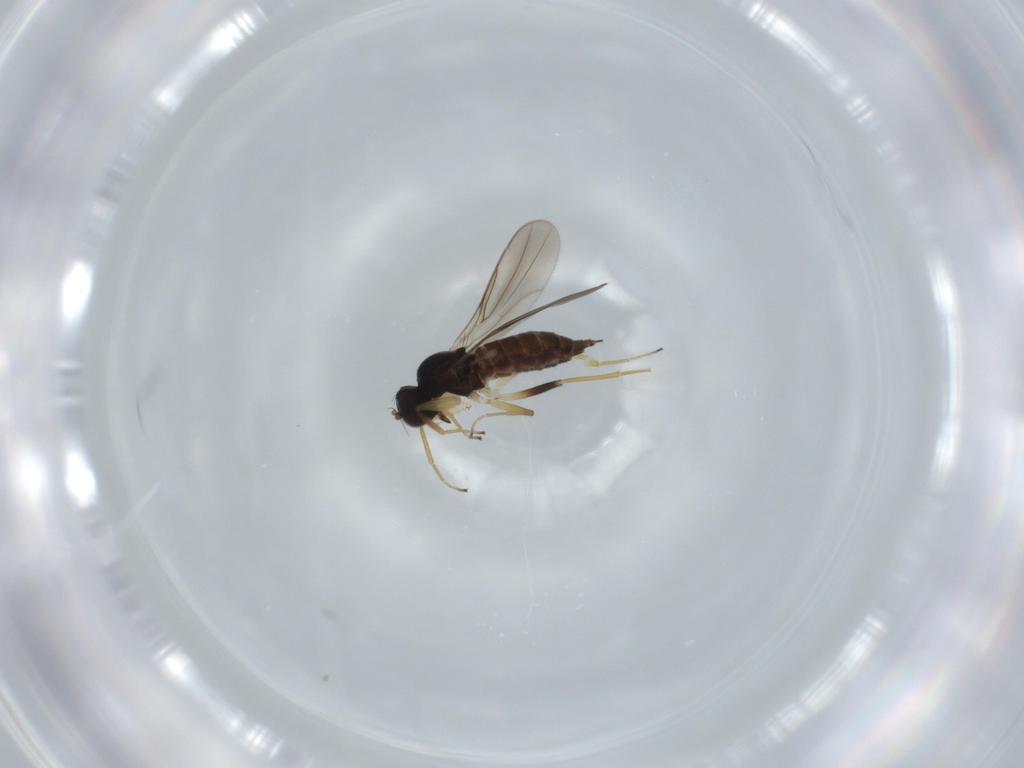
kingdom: Animalia
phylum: Arthropoda
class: Insecta
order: Diptera
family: Hybotidae
